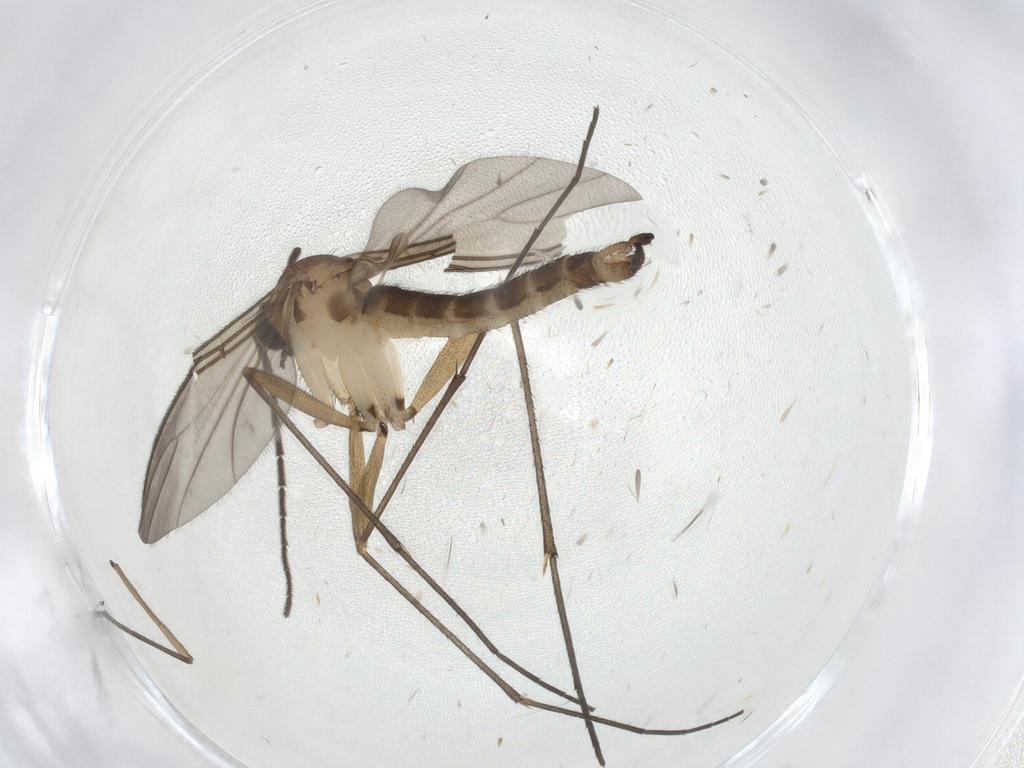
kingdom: Animalia
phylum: Arthropoda
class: Insecta
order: Diptera
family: Sciaridae
